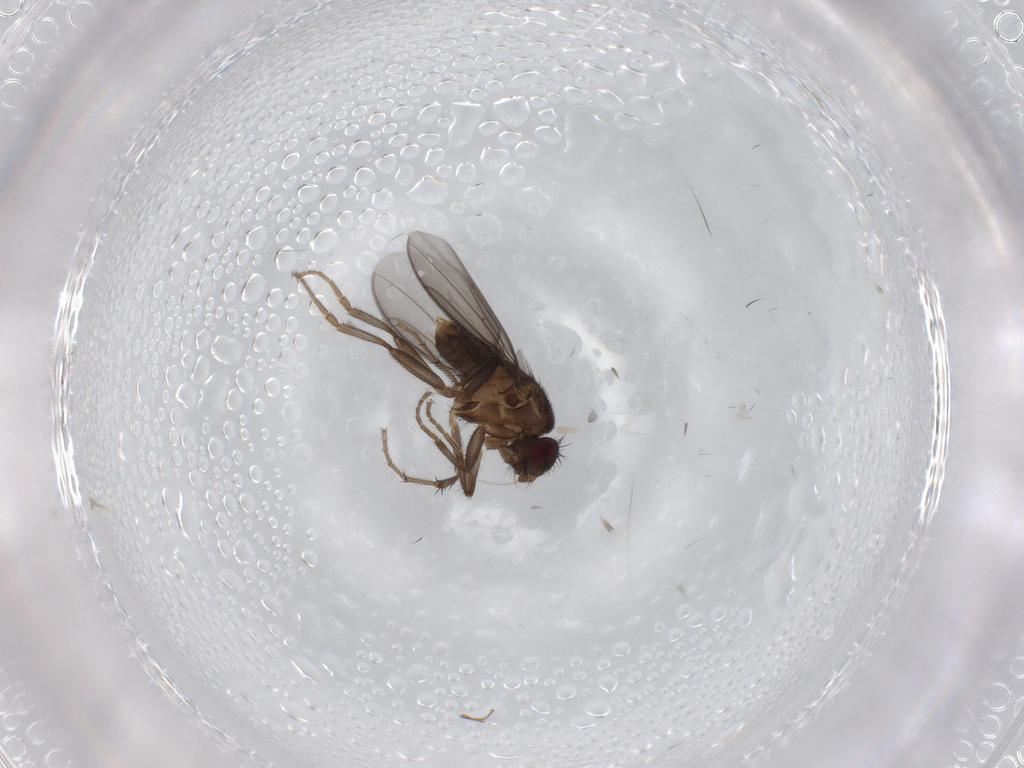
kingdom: Animalia
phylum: Arthropoda
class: Insecta
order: Diptera
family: Sphaeroceridae
